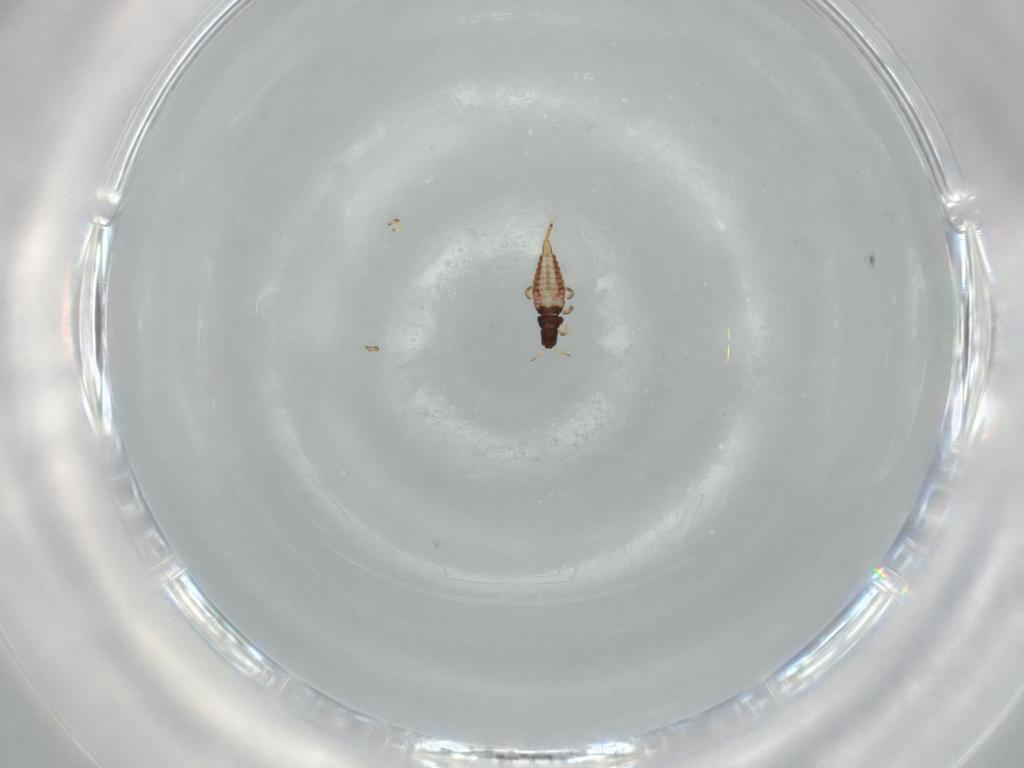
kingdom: Animalia
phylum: Arthropoda
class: Insecta
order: Thysanoptera
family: Phlaeothripidae
